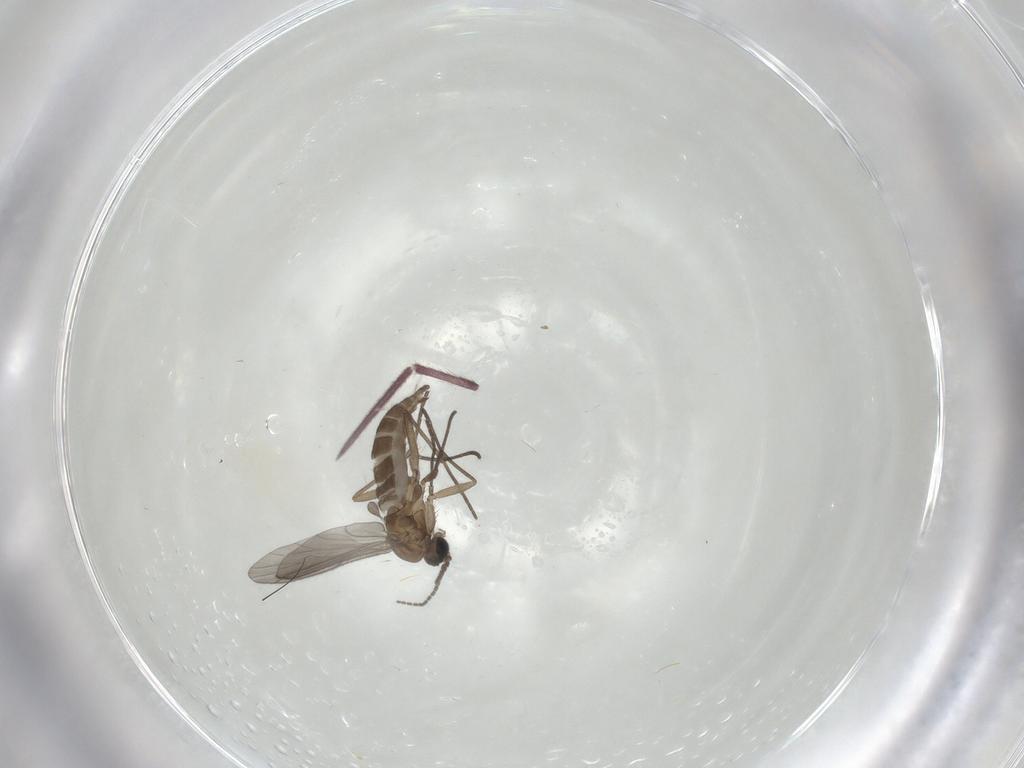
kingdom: Animalia
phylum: Arthropoda
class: Insecta
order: Diptera
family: Sciaridae
